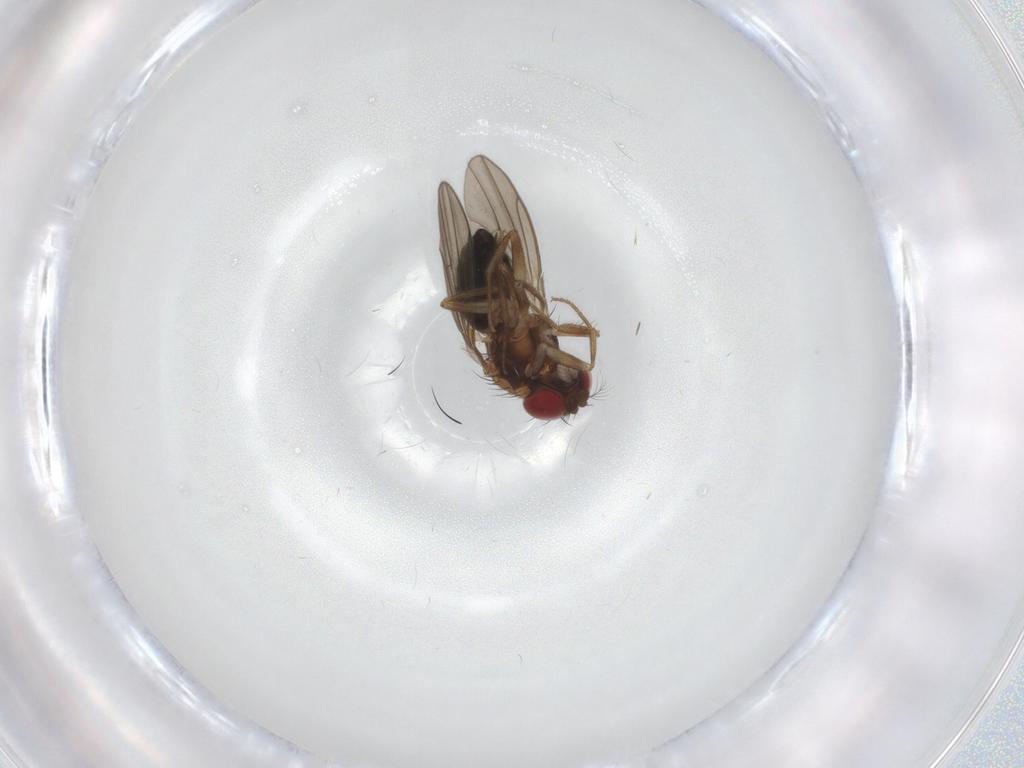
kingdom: Animalia
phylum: Arthropoda
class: Insecta
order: Diptera
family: Drosophilidae
